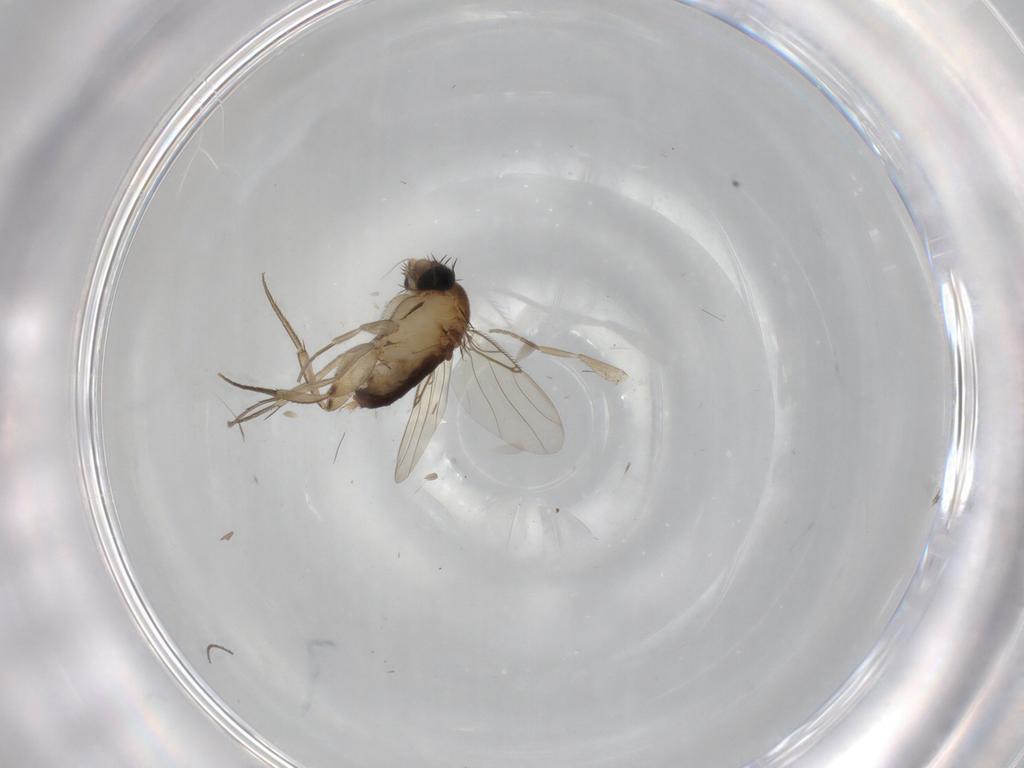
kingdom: Animalia
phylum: Arthropoda
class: Insecta
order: Diptera
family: Phoridae
